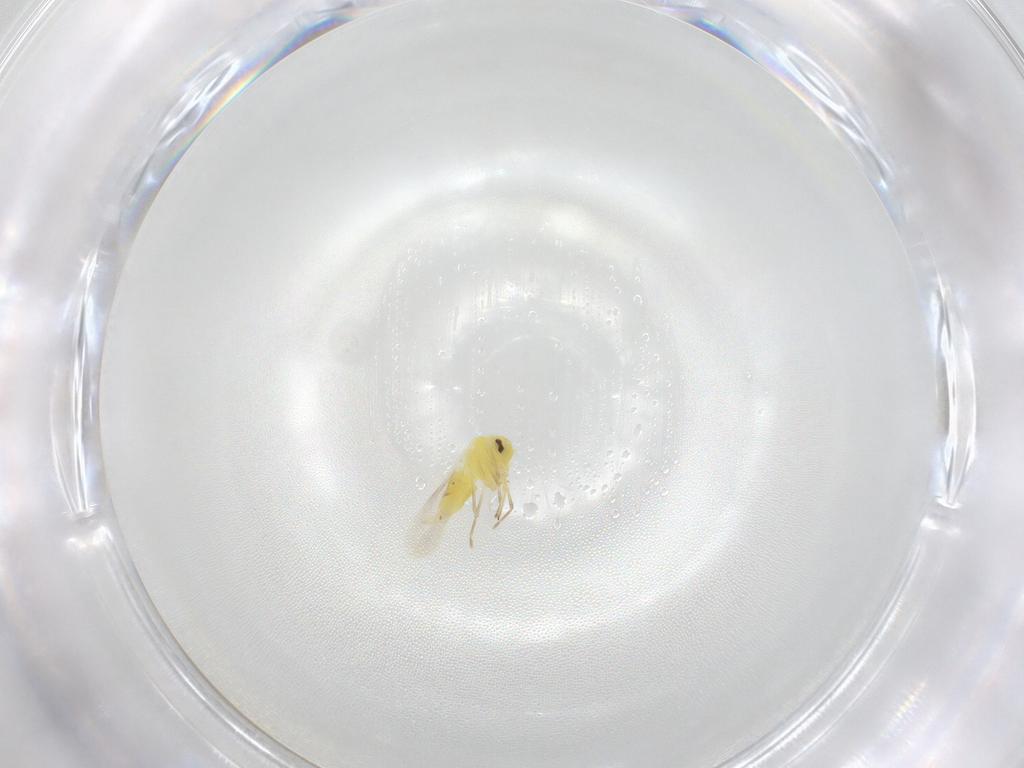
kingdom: Animalia
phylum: Arthropoda
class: Insecta
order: Hemiptera
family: Aleyrodidae
